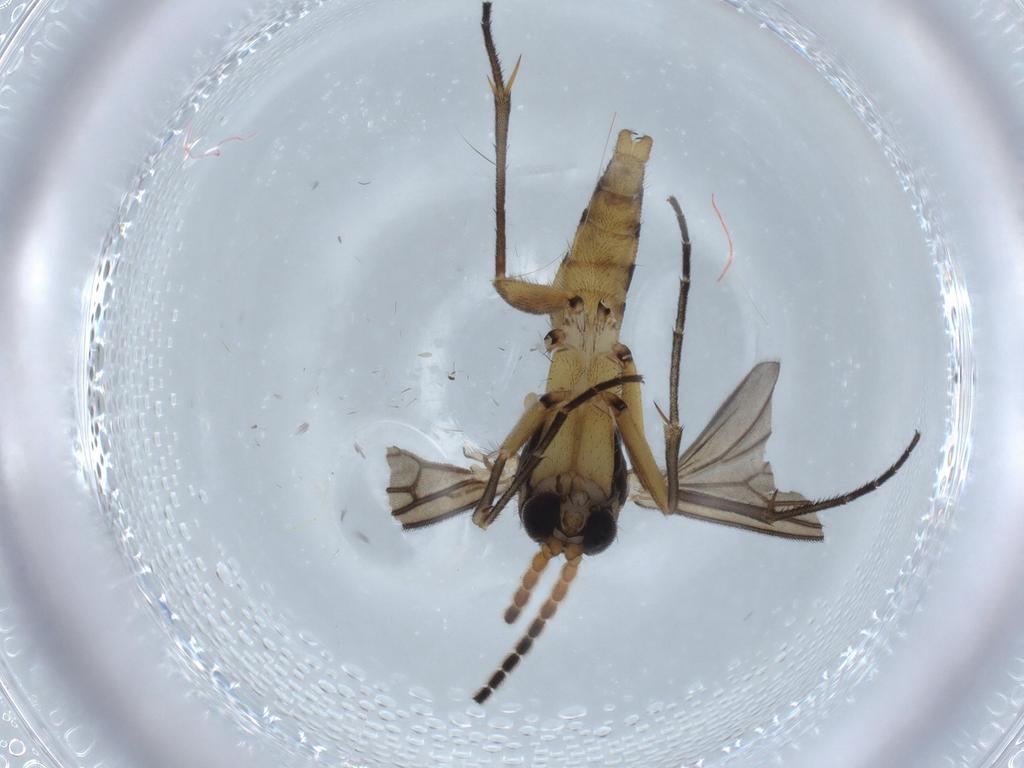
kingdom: Animalia
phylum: Arthropoda
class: Insecta
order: Diptera
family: Sciaridae
